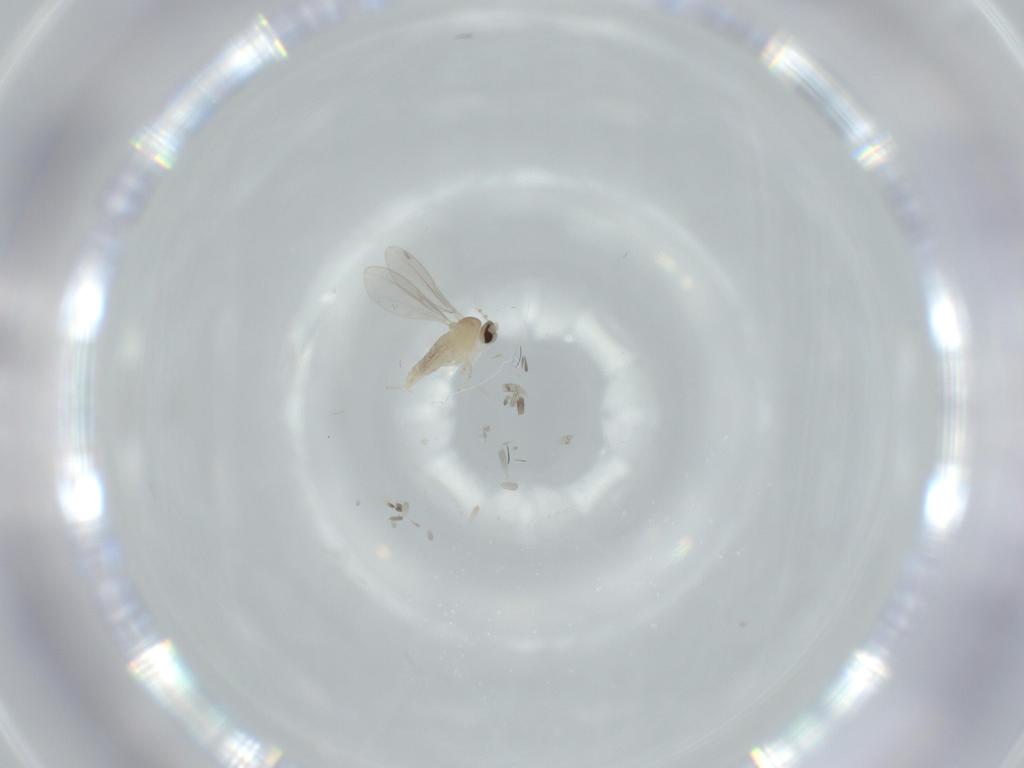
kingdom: Animalia
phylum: Arthropoda
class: Insecta
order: Diptera
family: Cecidomyiidae
